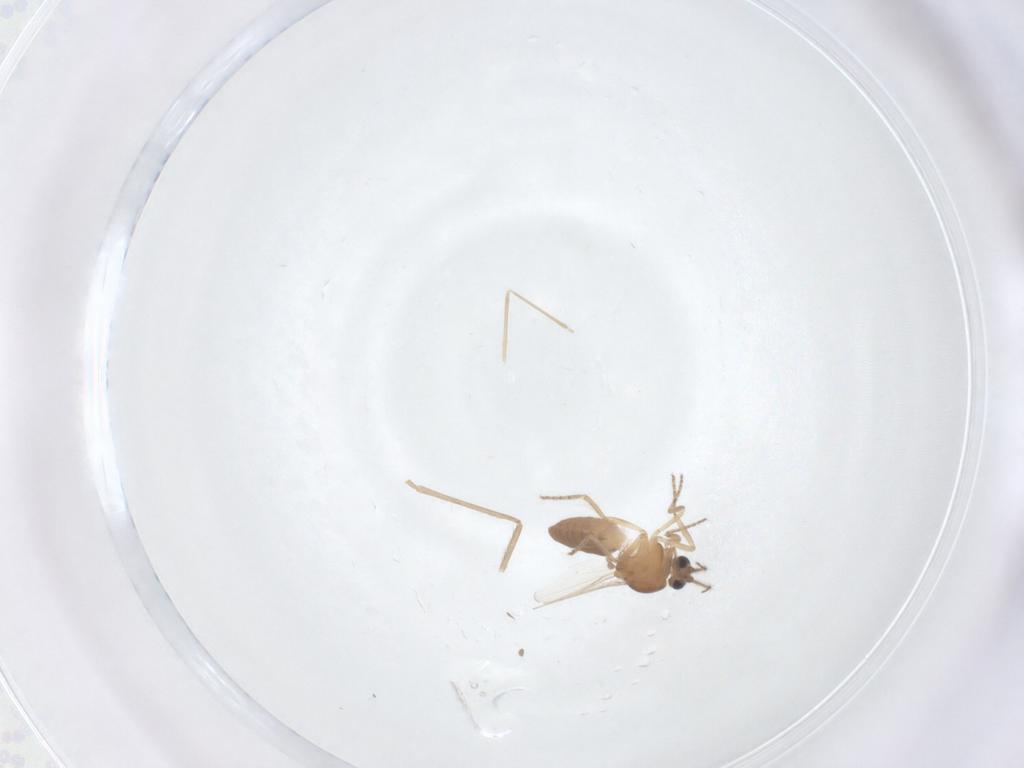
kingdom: Animalia
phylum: Arthropoda
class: Insecta
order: Diptera
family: Ceratopogonidae
